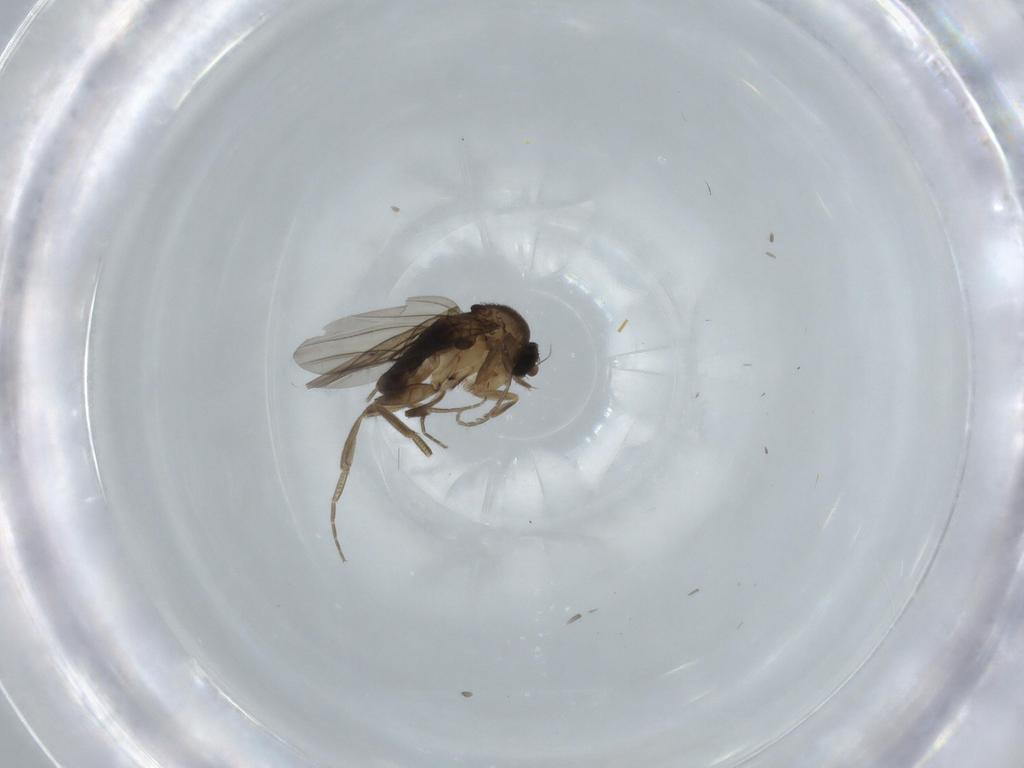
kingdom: Animalia
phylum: Arthropoda
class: Insecta
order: Diptera
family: Phoridae
